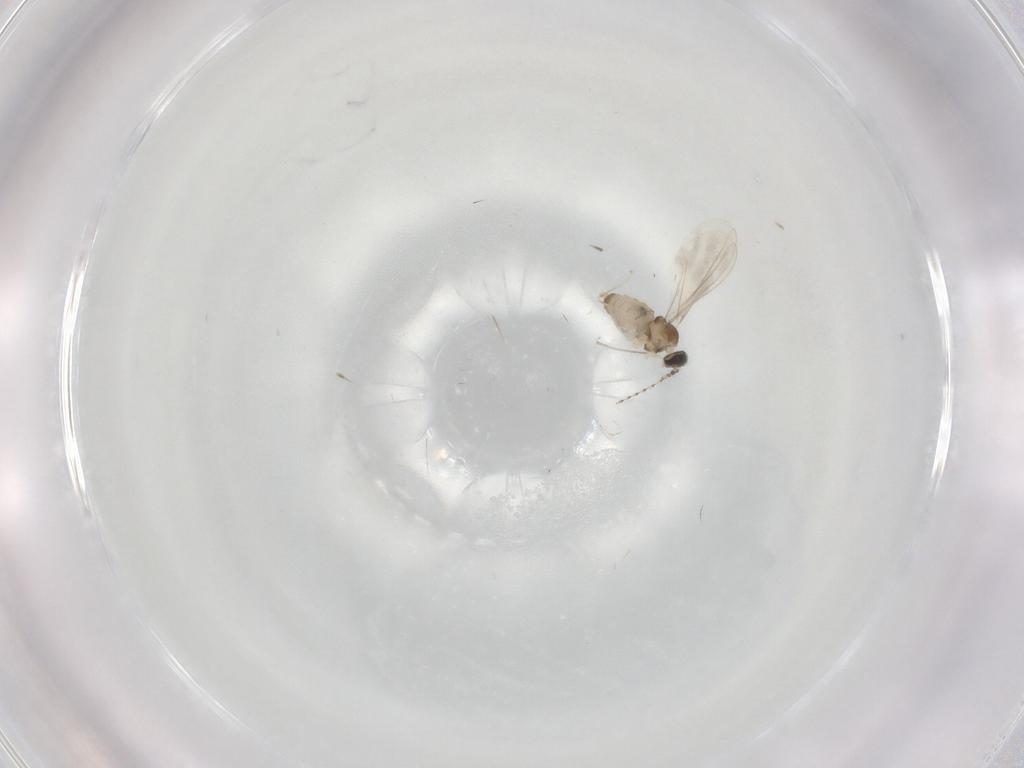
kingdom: Animalia
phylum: Arthropoda
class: Insecta
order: Diptera
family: Cecidomyiidae
